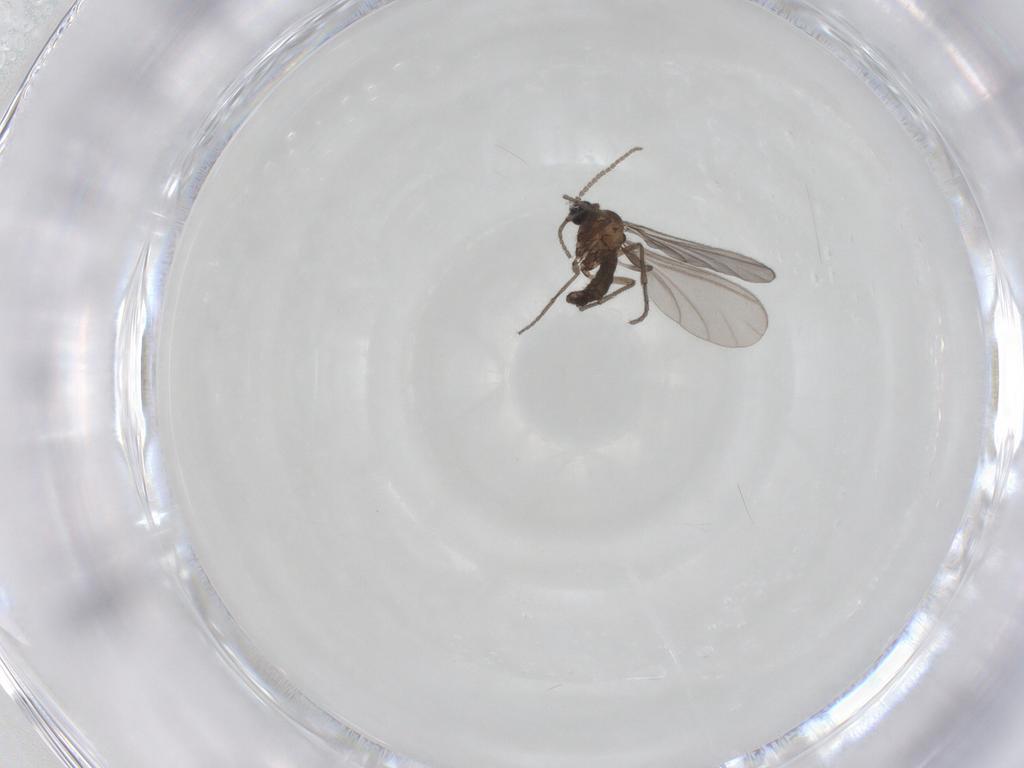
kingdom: Animalia
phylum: Arthropoda
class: Insecta
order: Diptera
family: Sciaridae
